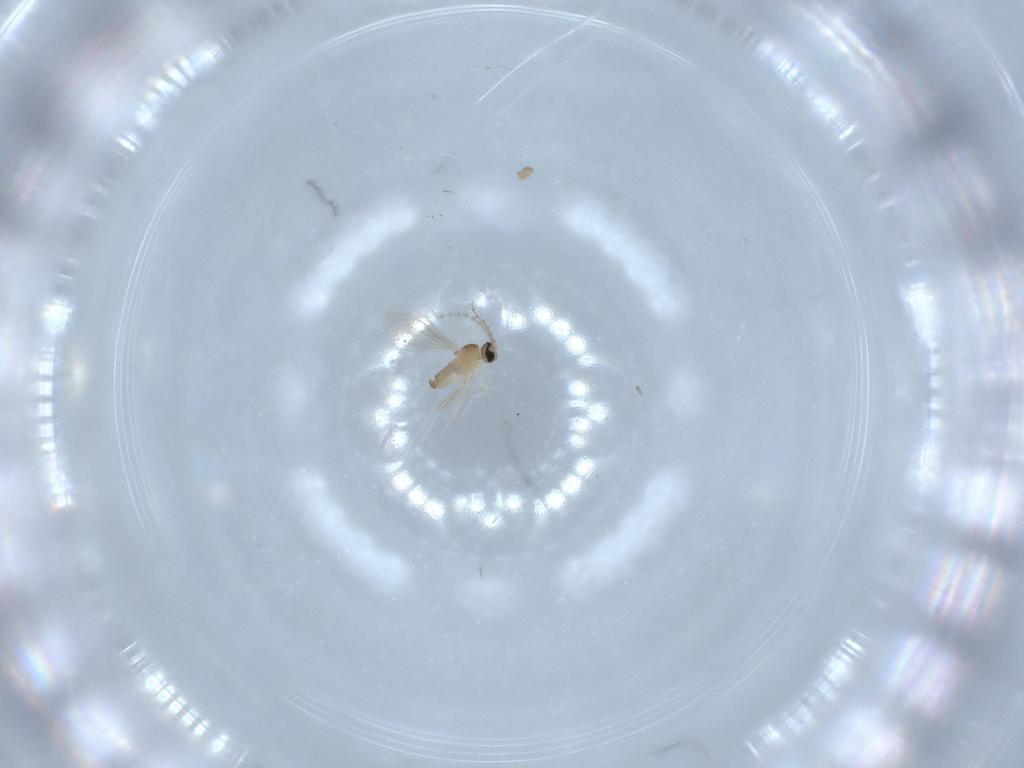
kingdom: Animalia
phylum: Arthropoda
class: Insecta
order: Diptera
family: Cecidomyiidae
